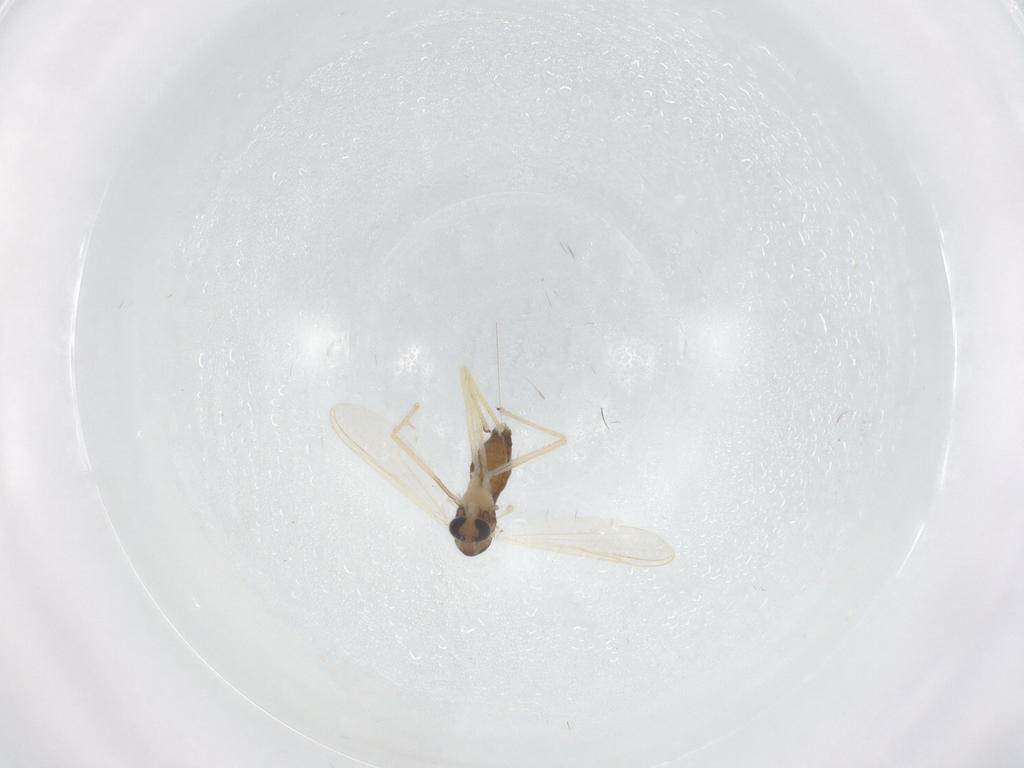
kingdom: Animalia
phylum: Arthropoda
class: Insecta
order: Diptera
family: Chironomidae
